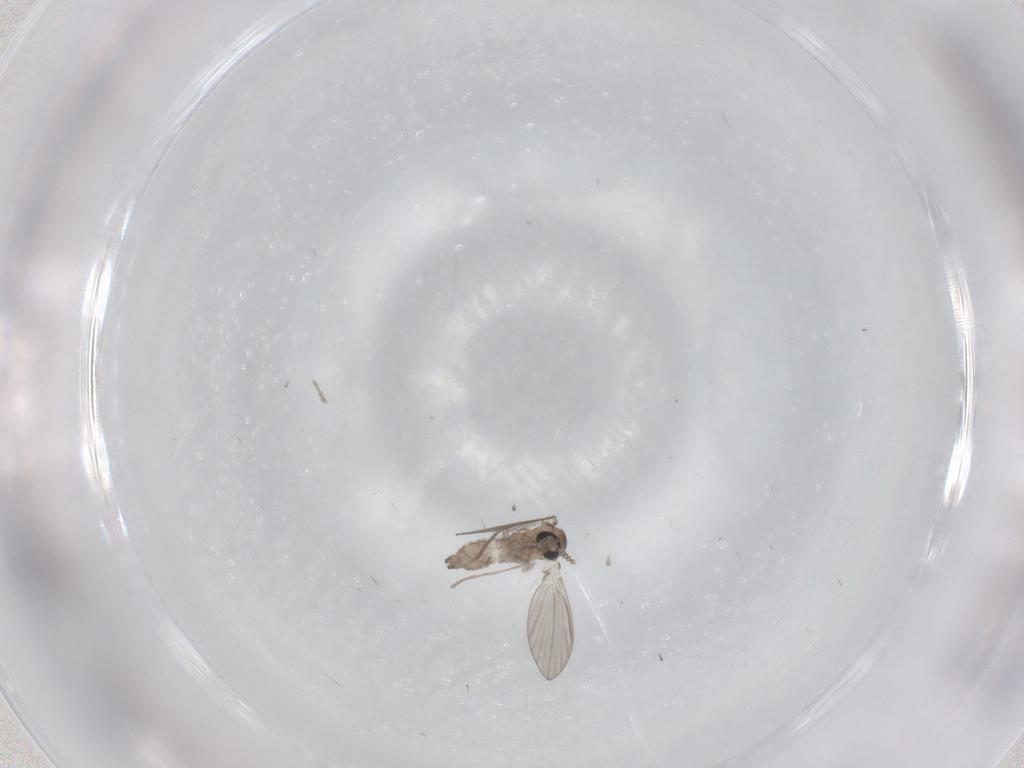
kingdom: Animalia
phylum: Arthropoda
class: Insecta
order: Diptera
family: Psychodidae
